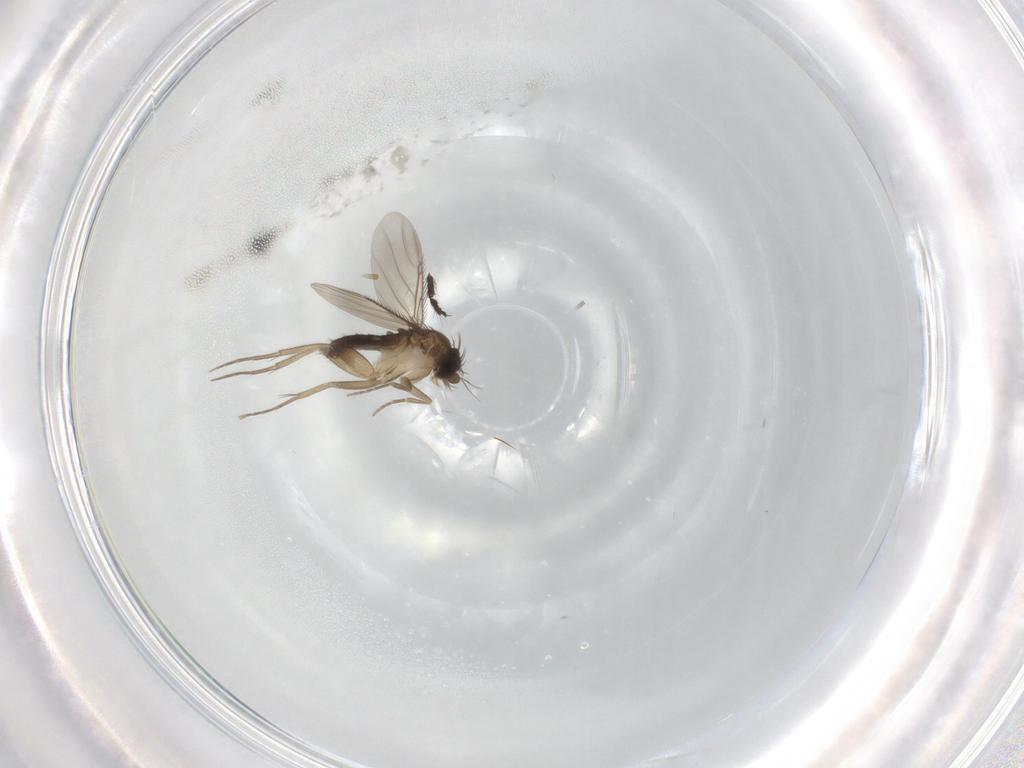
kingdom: Animalia
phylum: Arthropoda
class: Insecta
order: Diptera
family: Phoridae
